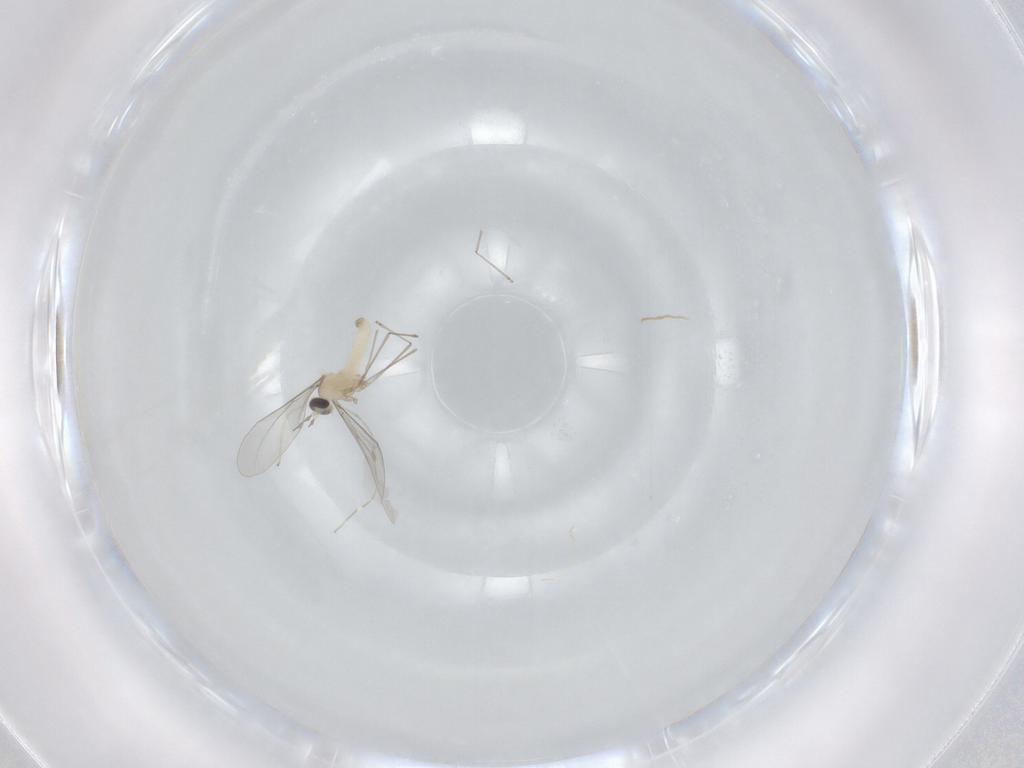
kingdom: Animalia
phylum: Arthropoda
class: Insecta
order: Diptera
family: Chironomidae
